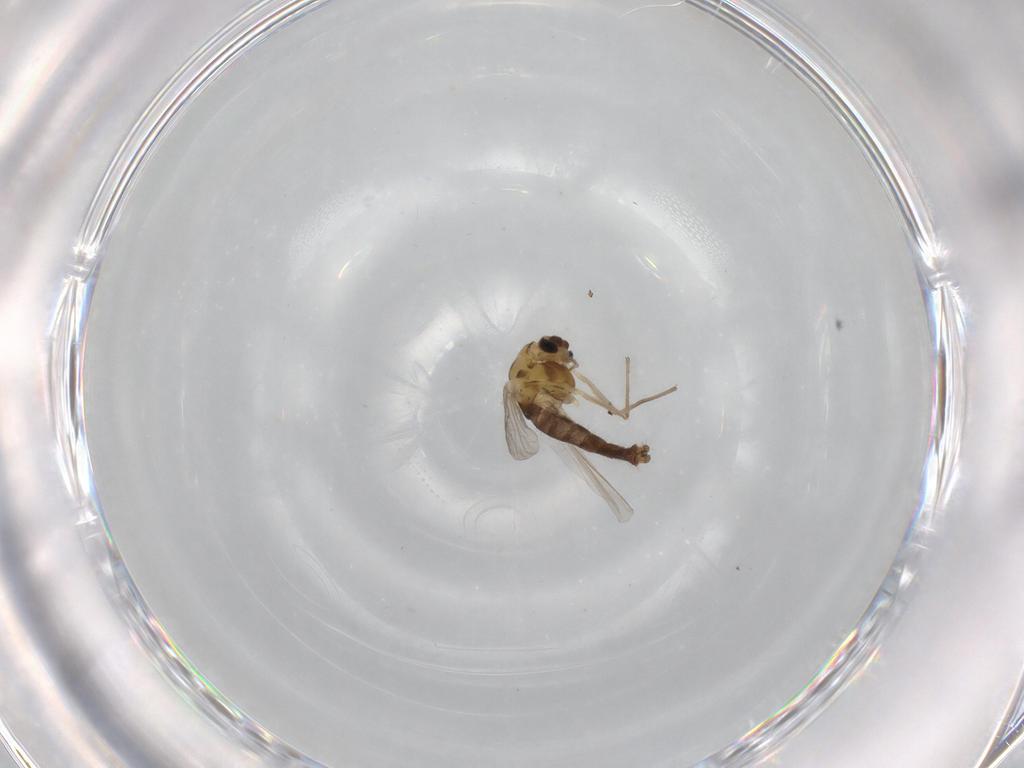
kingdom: Animalia
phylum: Arthropoda
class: Insecta
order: Diptera
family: Chironomidae
